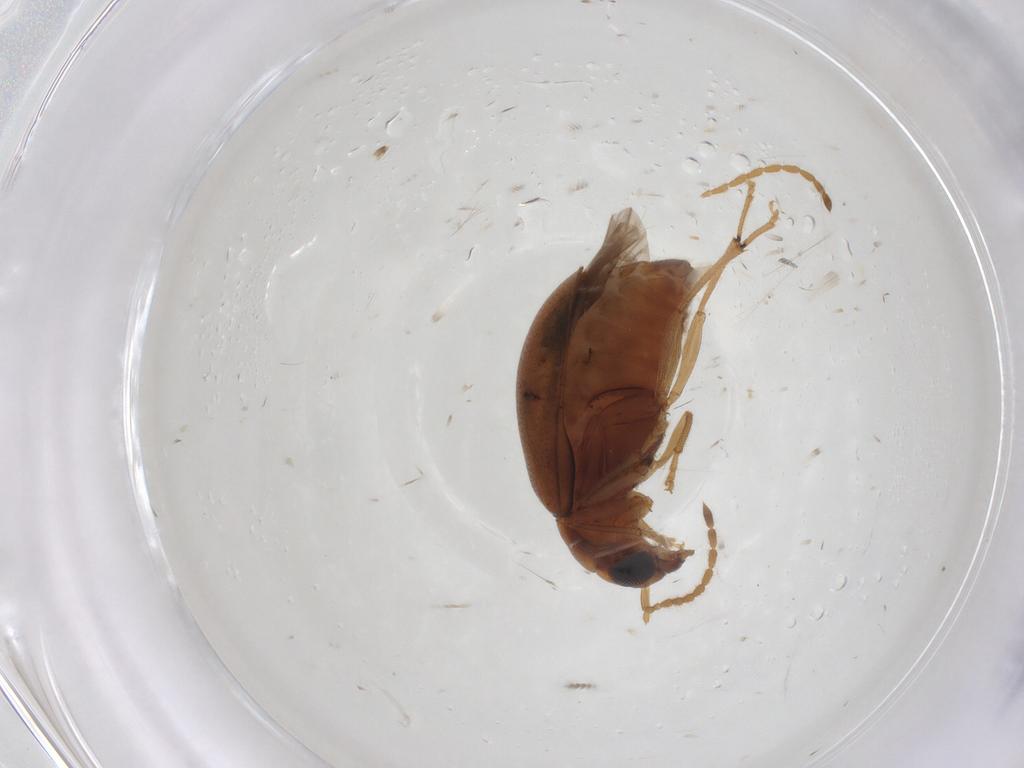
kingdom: Animalia
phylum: Arthropoda
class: Insecta
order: Coleoptera
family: Chrysomelidae
